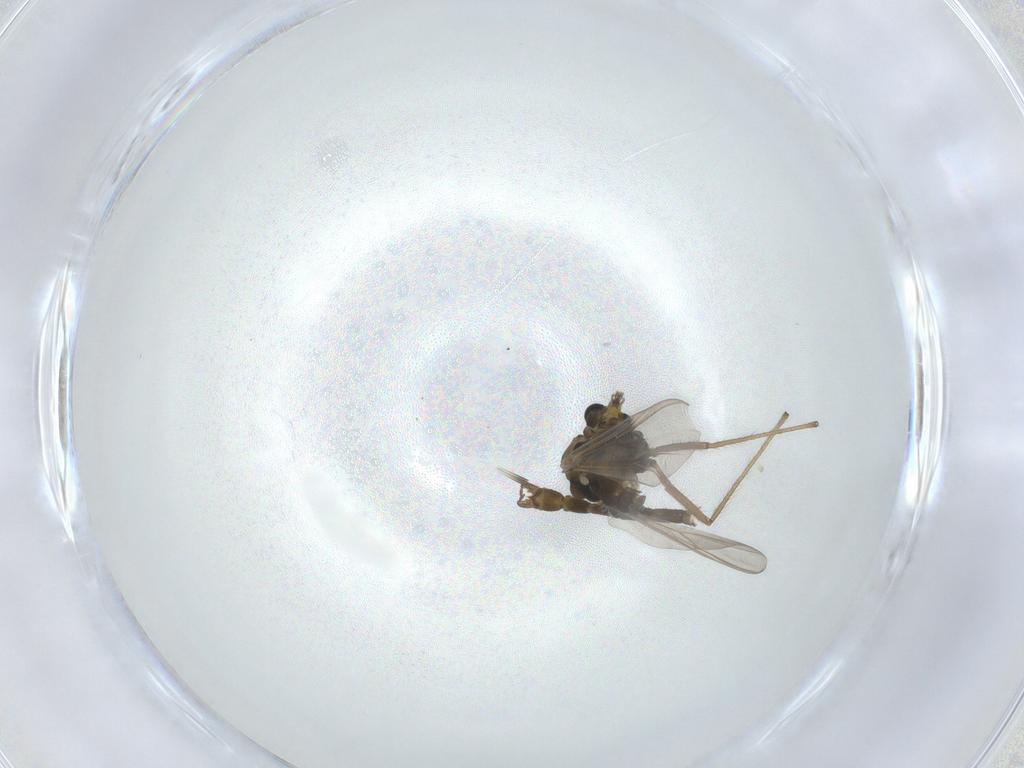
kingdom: Animalia
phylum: Arthropoda
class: Insecta
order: Diptera
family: Chironomidae
